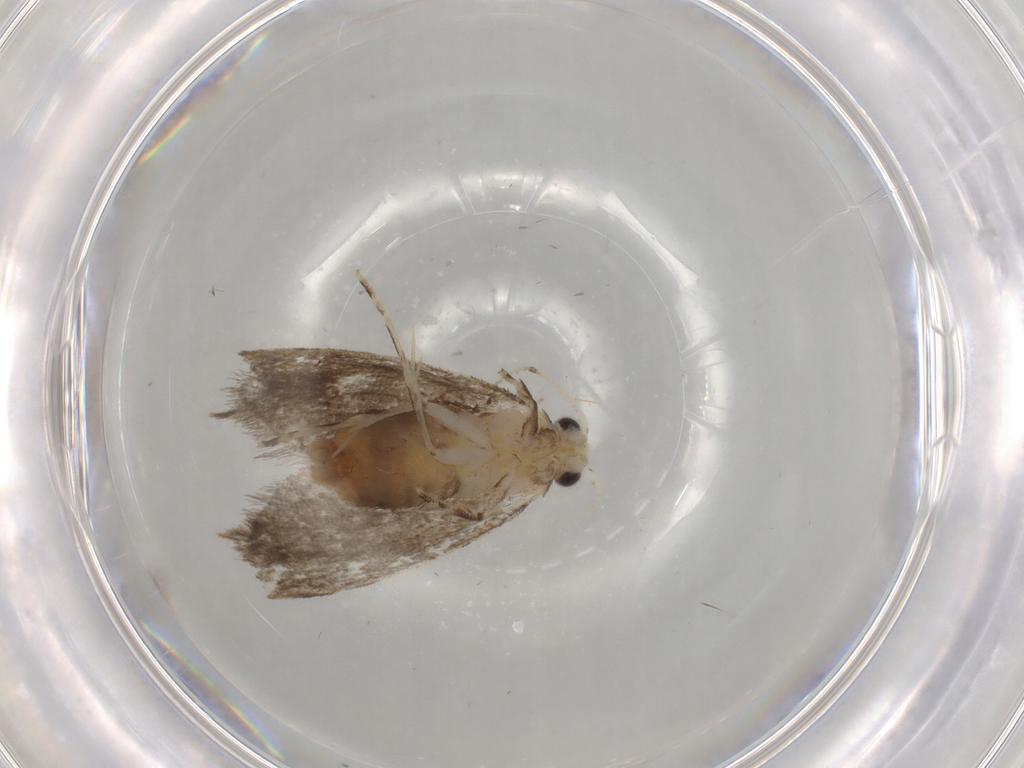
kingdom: Animalia
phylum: Arthropoda
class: Insecta
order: Lepidoptera
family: Tineidae
